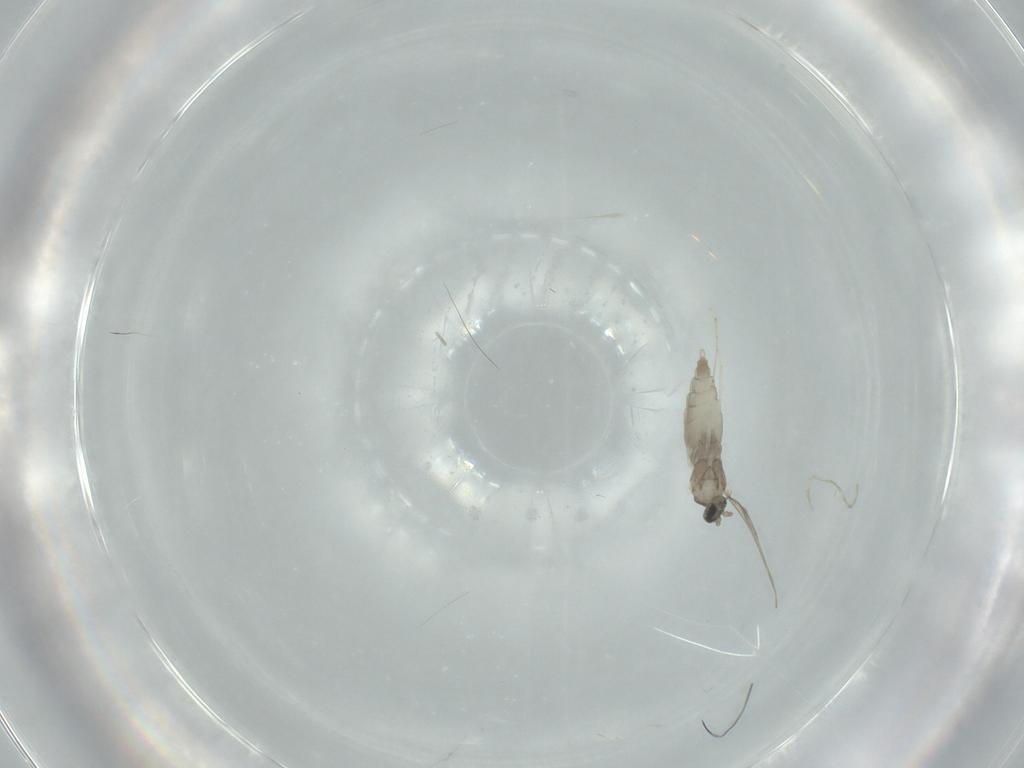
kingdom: Animalia
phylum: Arthropoda
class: Insecta
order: Diptera
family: Cecidomyiidae
